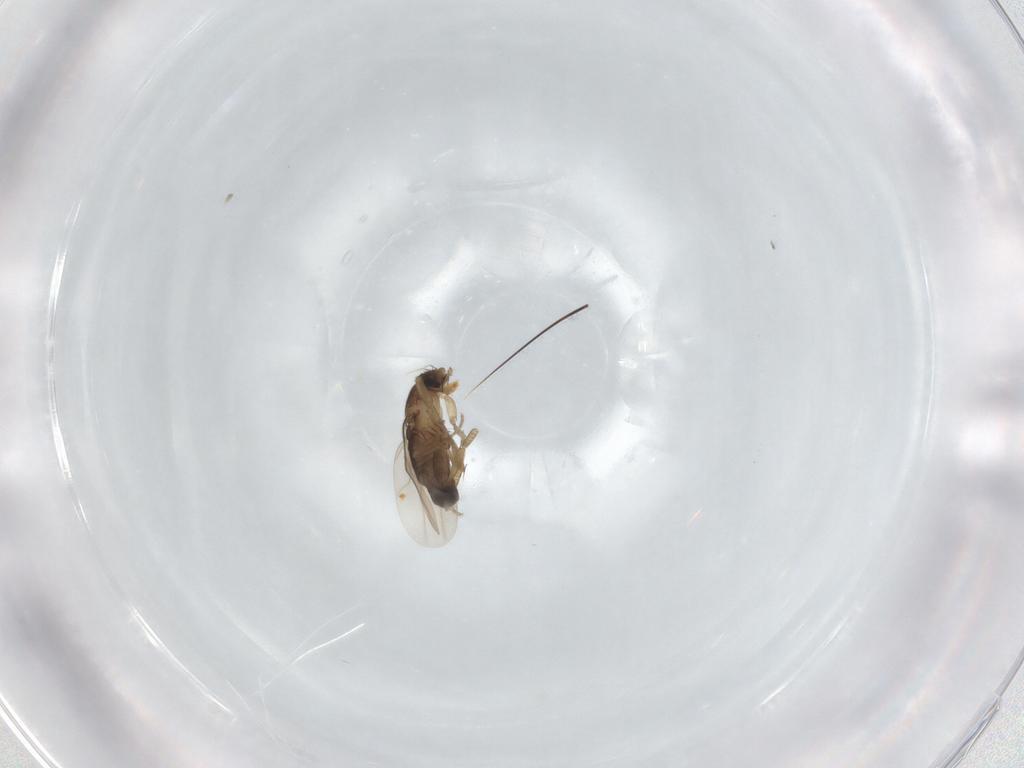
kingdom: Animalia
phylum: Arthropoda
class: Insecta
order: Diptera
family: Phoridae
